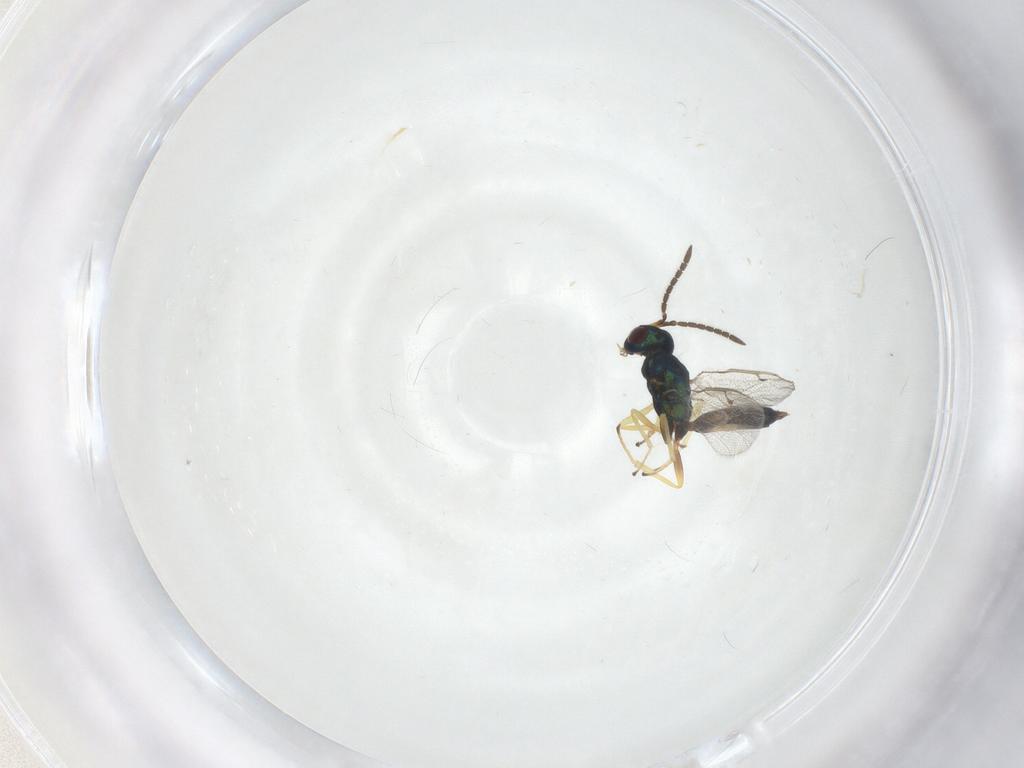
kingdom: Animalia
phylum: Arthropoda
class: Insecta
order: Hymenoptera
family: Pteromalidae
